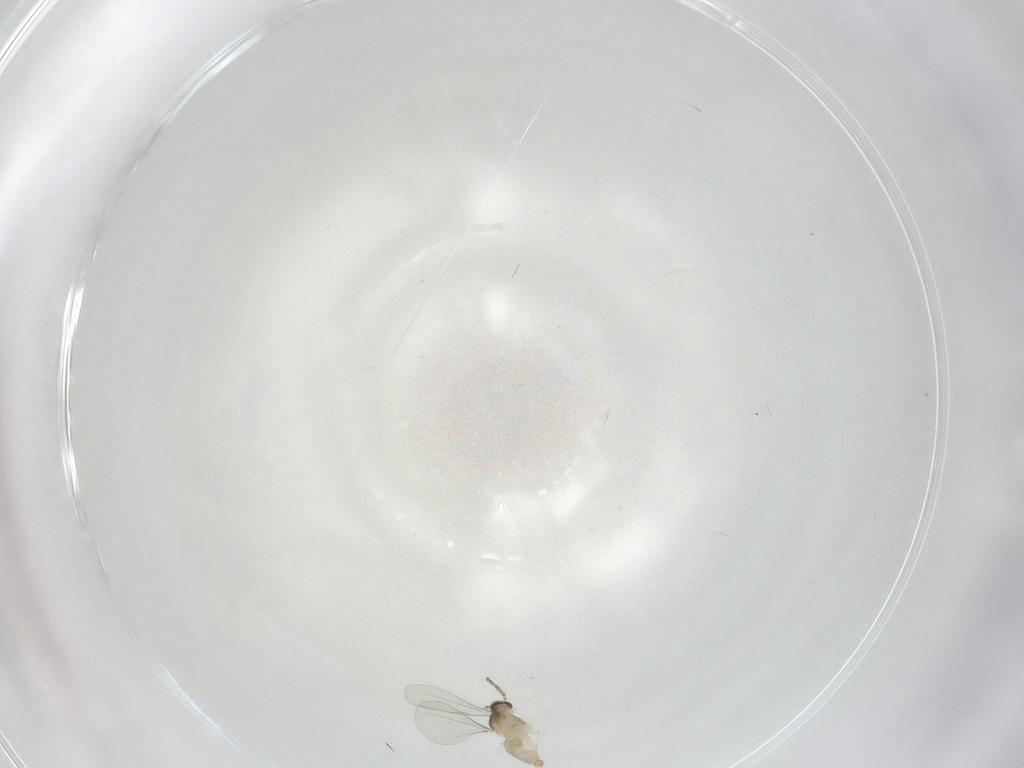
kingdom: Animalia
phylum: Arthropoda
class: Insecta
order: Diptera
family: Cecidomyiidae
